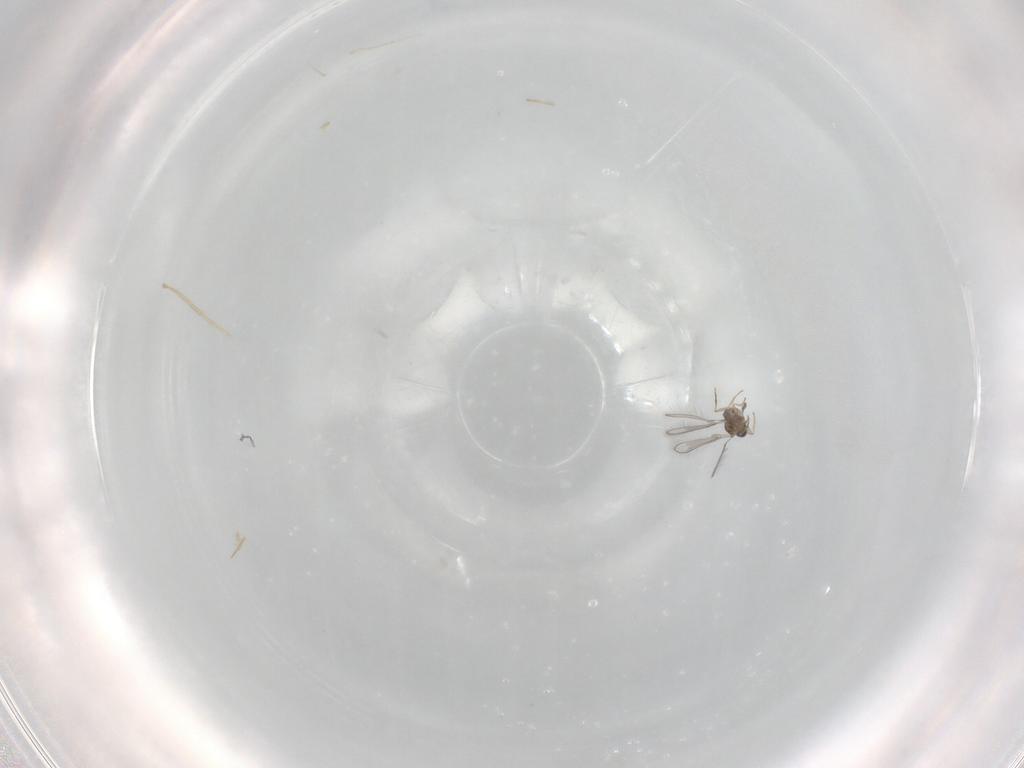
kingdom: Animalia
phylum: Arthropoda
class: Insecta
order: Hymenoptera
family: Mymaridae
